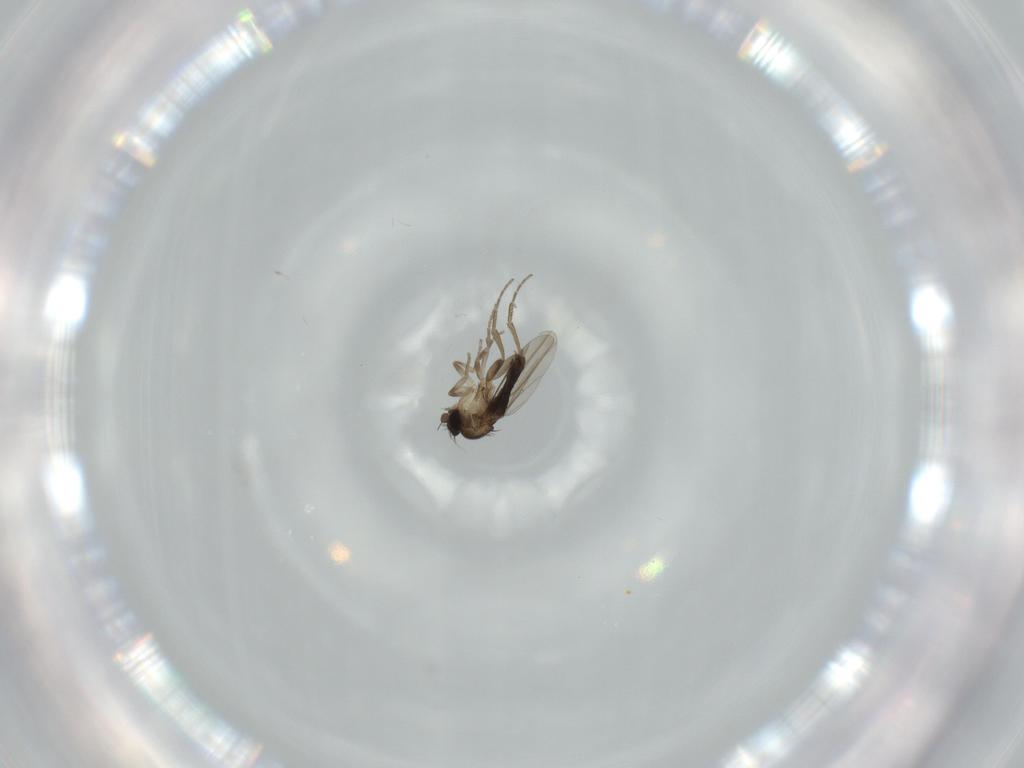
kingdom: Animalia
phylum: Arthropoda
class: Insecta
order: Diptera
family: Phoridae
